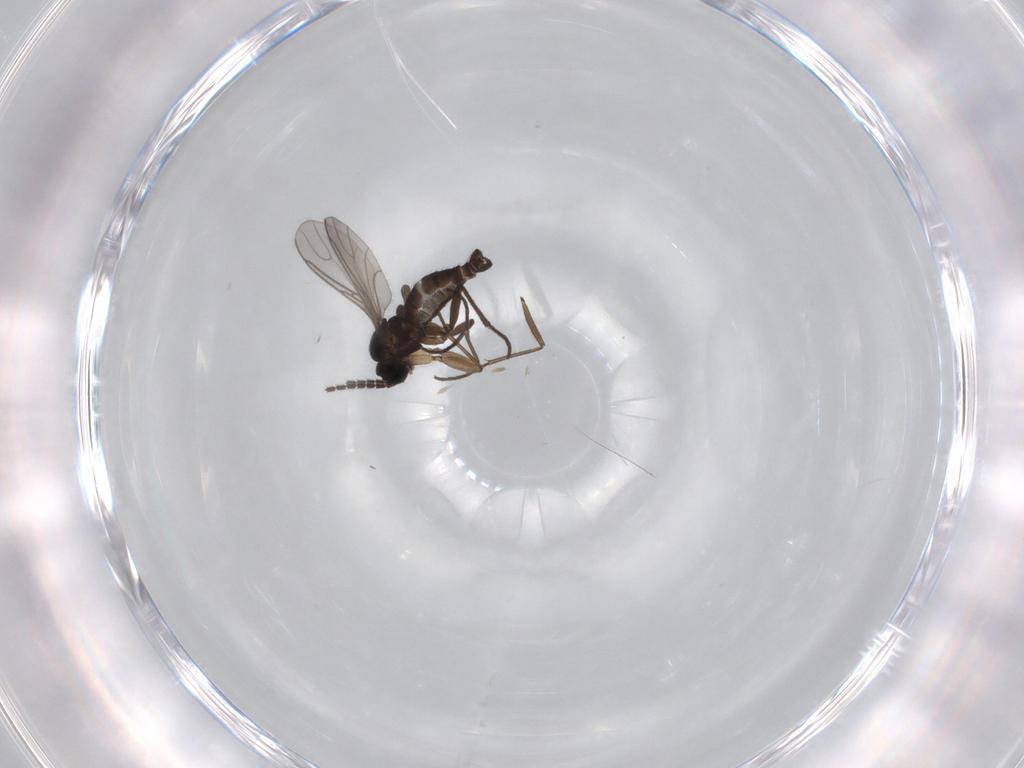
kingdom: Animalia
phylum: Arthropoda
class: Insecta
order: Diptera
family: Sciaridae
